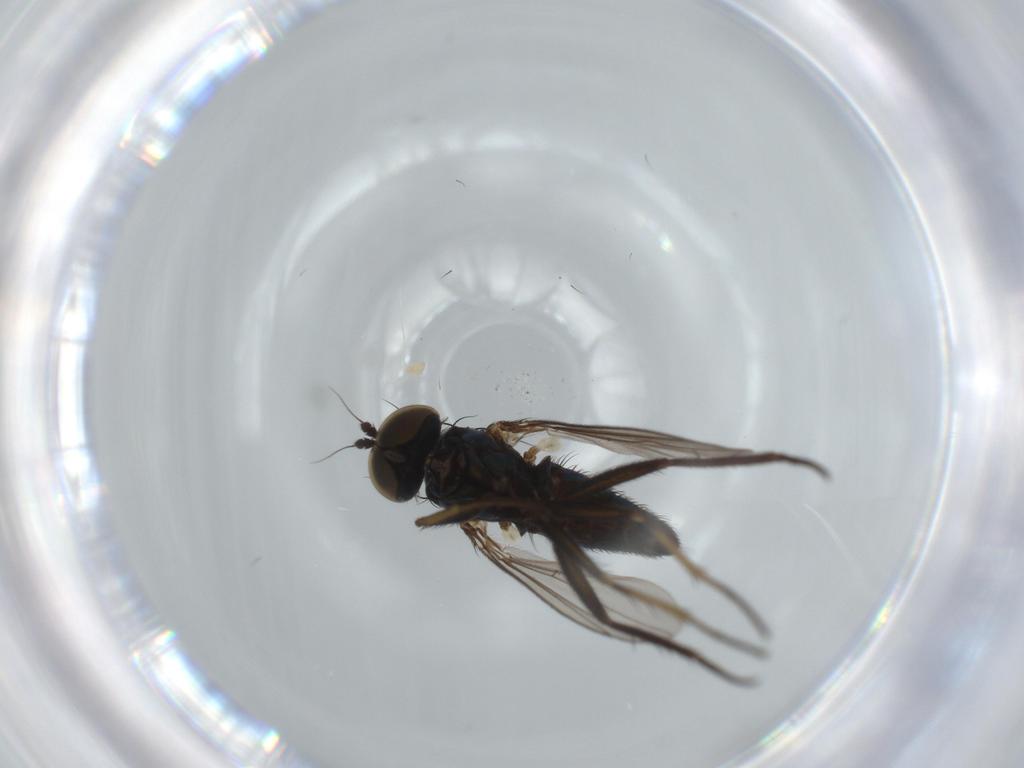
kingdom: Animalia
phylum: Arthropoda
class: Insecta
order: Diptera
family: Dolichopodidae
